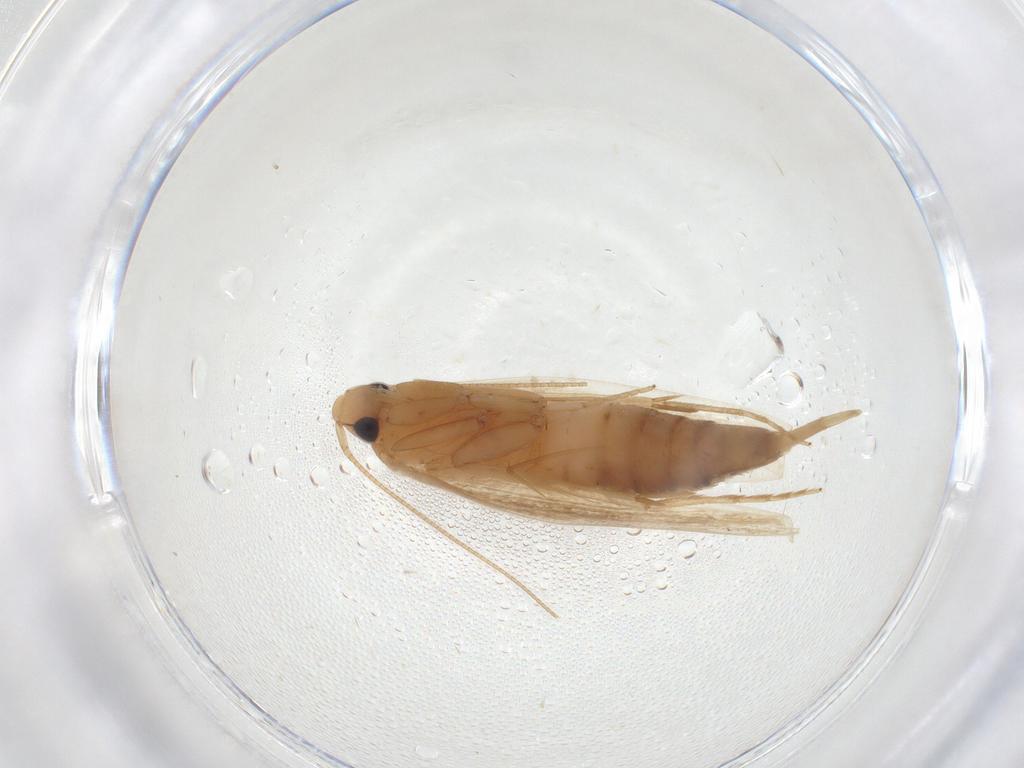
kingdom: Animalia
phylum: Arthropoda
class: Insecta
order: Lepidoptera
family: Tineidae
